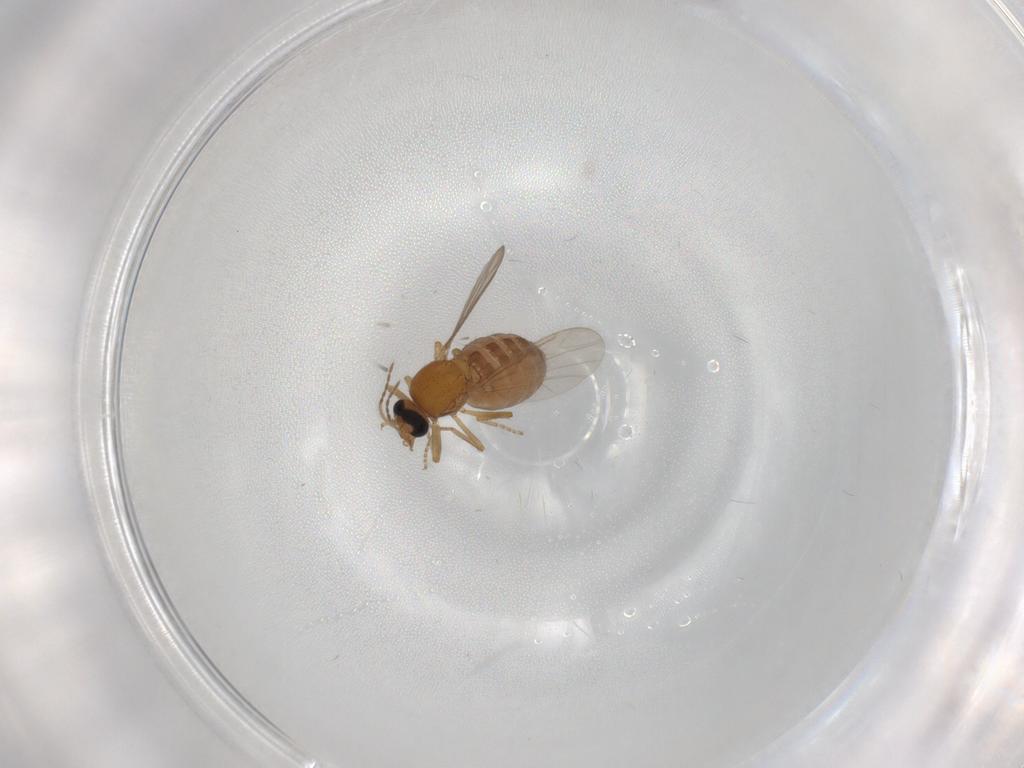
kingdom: Animalia
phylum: Arthropoda
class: Insecta
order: Diptera
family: Ceratopogonidae
